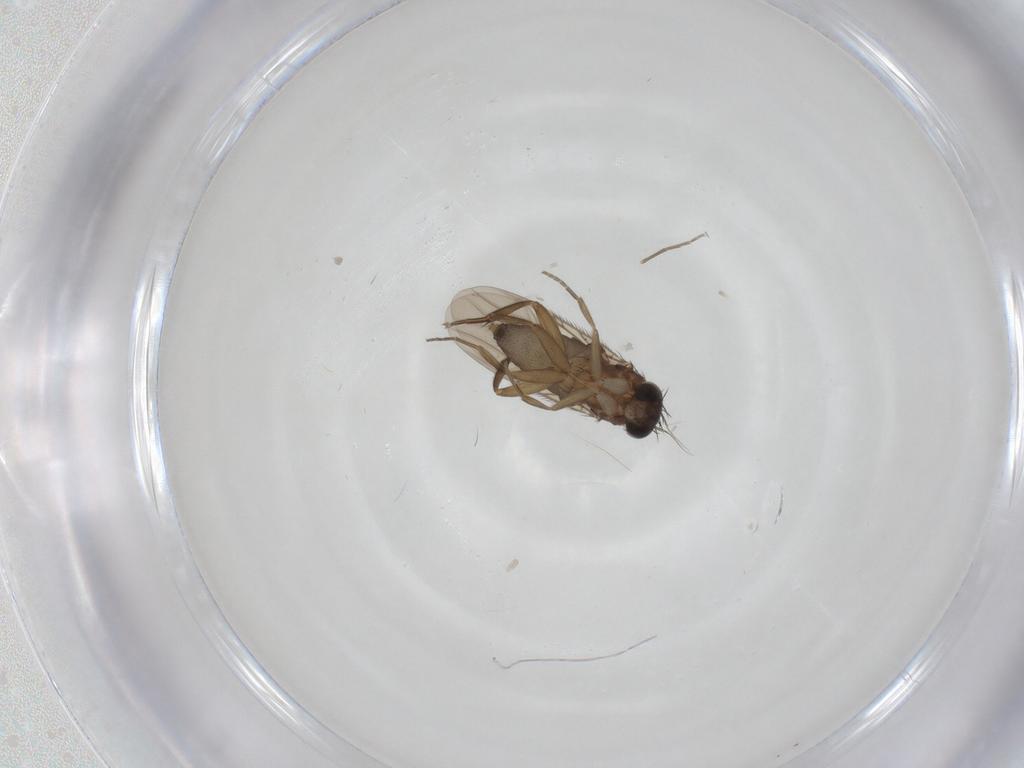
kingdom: Animalia
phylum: Arthropoda
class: Insecta
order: Diptera
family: Phoridae
